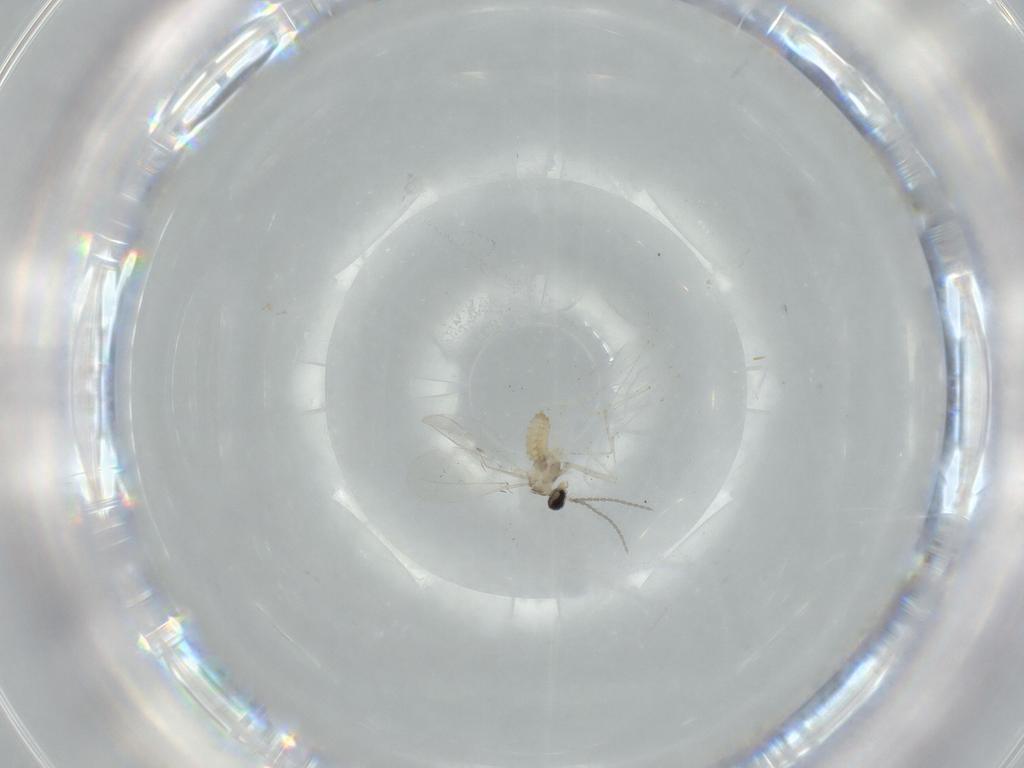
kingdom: Animalia
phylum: Arthropoda
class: Insecta
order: Diptera
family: Cecidomyiidae
